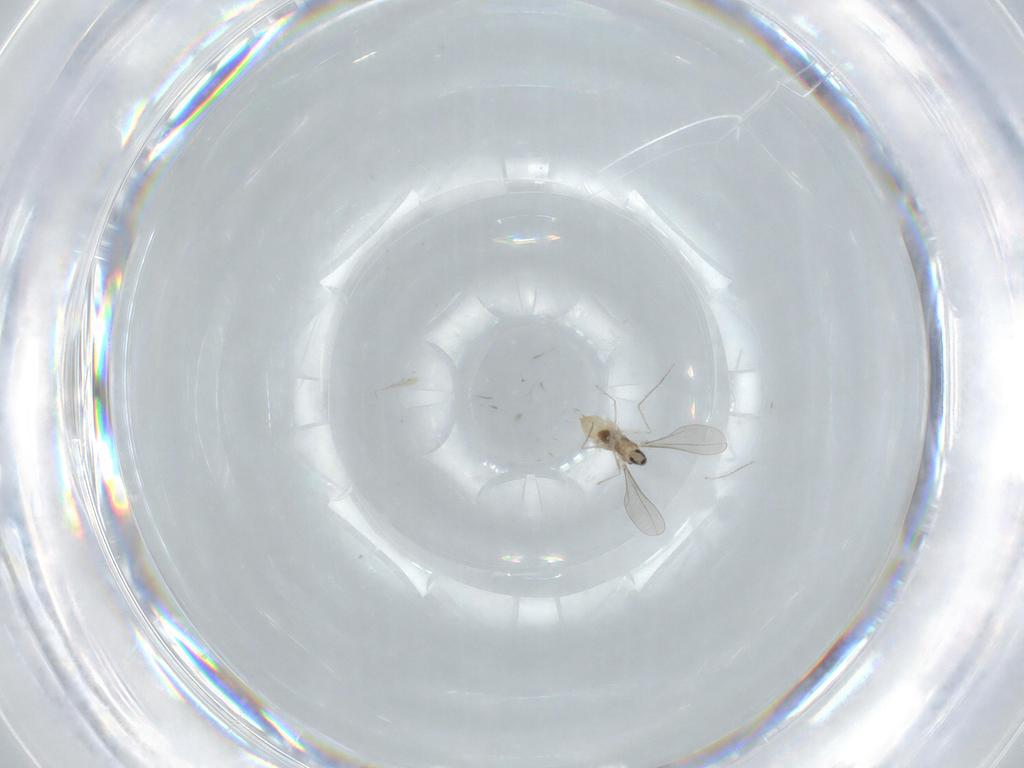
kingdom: Animalia
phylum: Arthropoda
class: Insecta
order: Diptera
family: Cecidomyiidae
